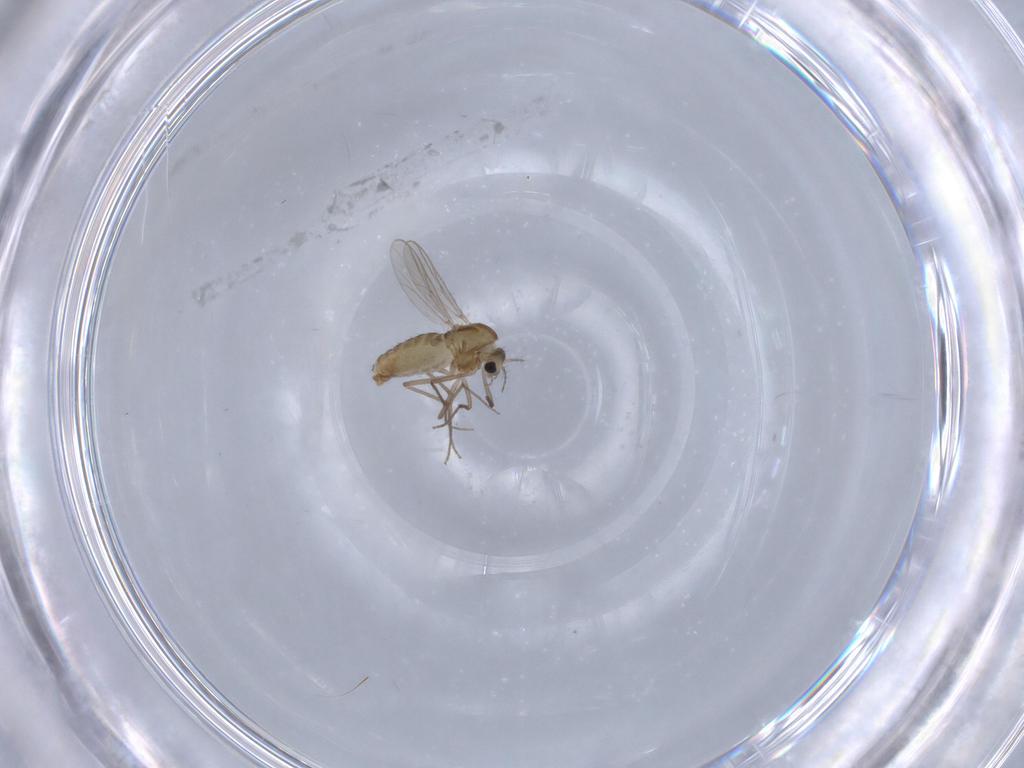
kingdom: Animalia
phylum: Arthropoda
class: Insecta
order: Diptera
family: Chironomidae
